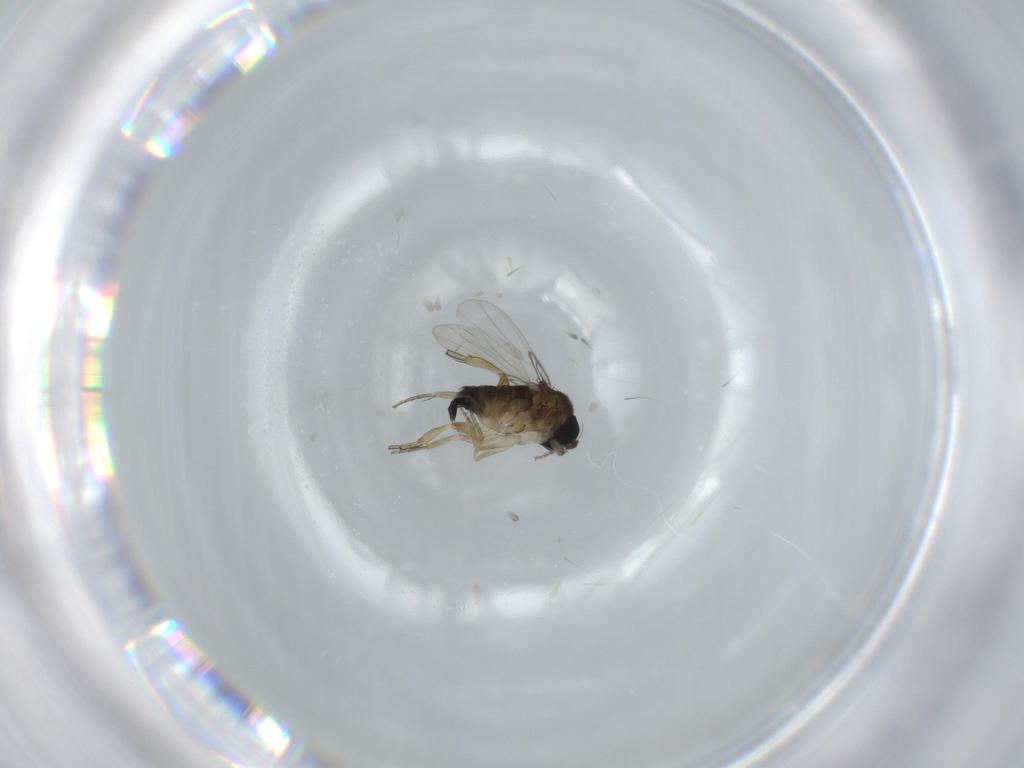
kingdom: Animalia
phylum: Arthropoda
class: Insecta
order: Diptera
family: Phoridae
